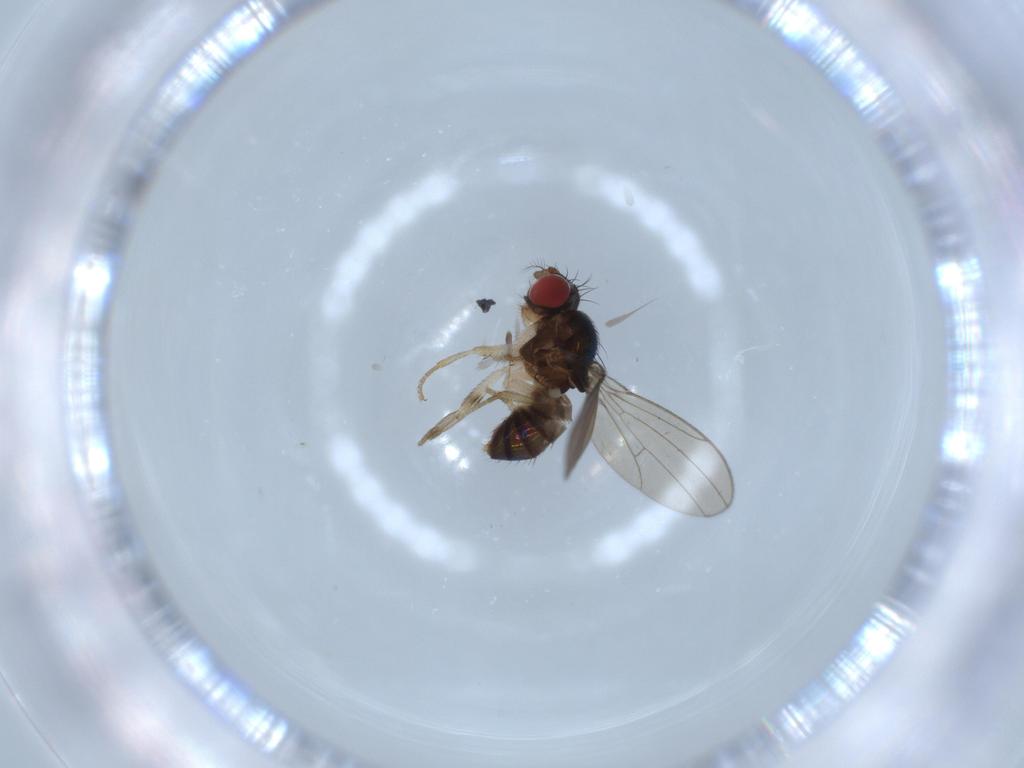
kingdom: Animalia
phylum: Arthropoda
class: Insecta
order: Diptera
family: Drosophilidae
